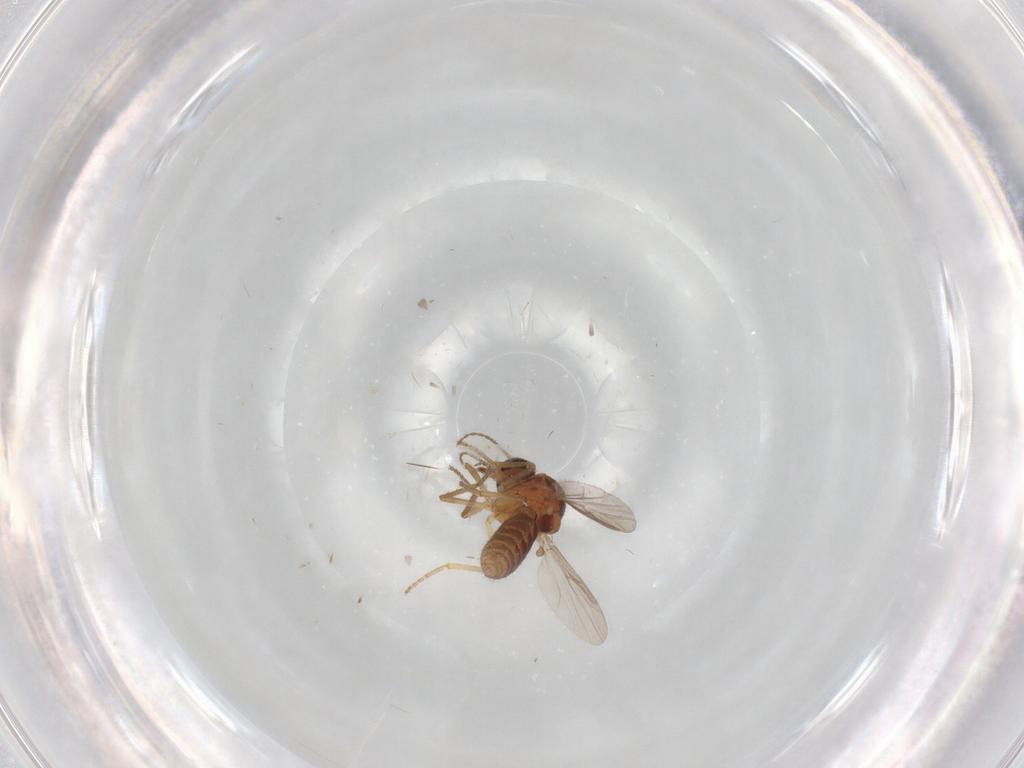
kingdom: Animalia
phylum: Arthropoda
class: Insecta
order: Diptera
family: Psychodidae
